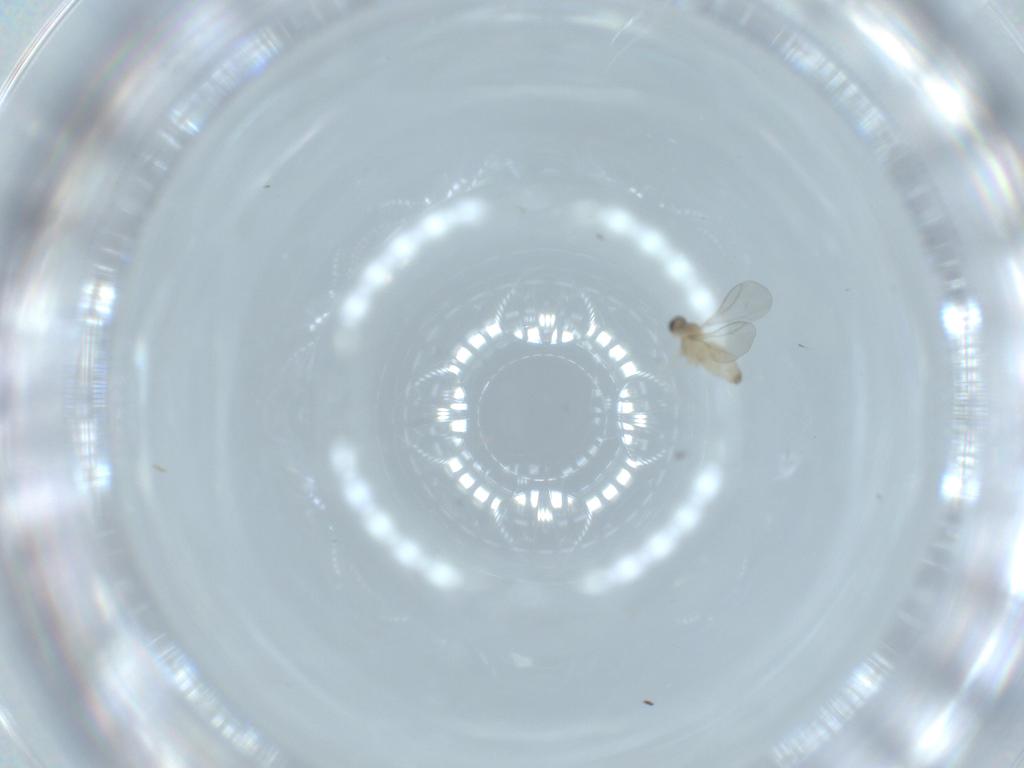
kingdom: Animalia
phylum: Arthropoda
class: Insecta
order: Diptera
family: Cecidomyiidae
